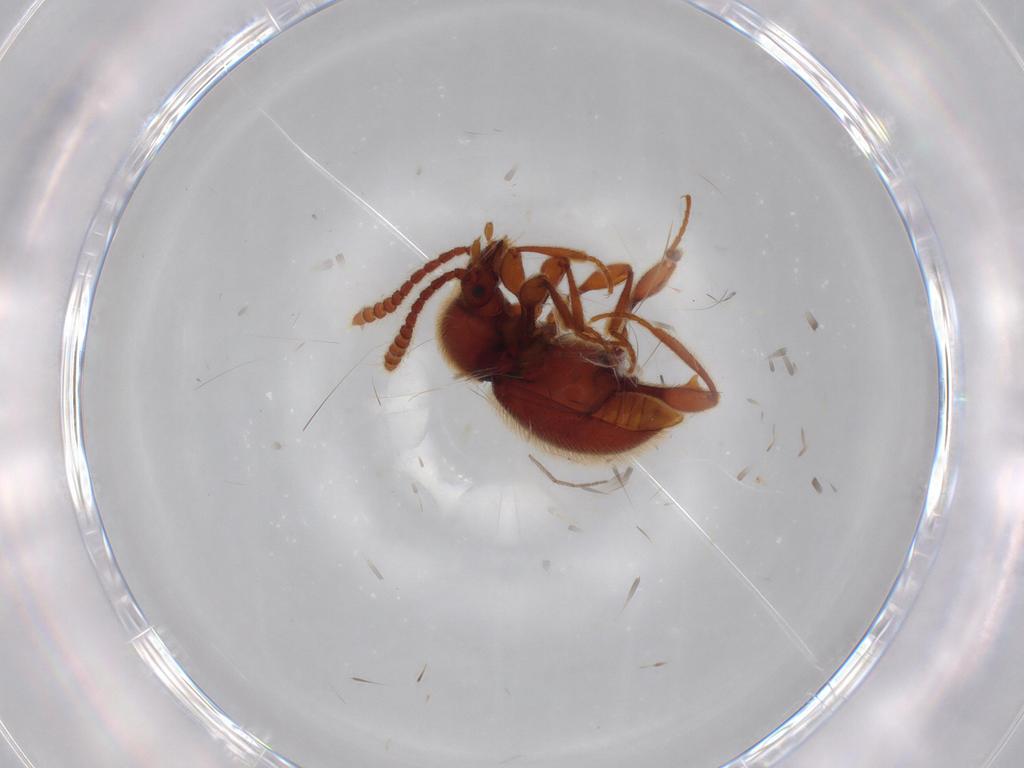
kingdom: Animalia
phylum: Arthropoda
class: Insecta
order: Coleoptera
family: Staphylinidae
